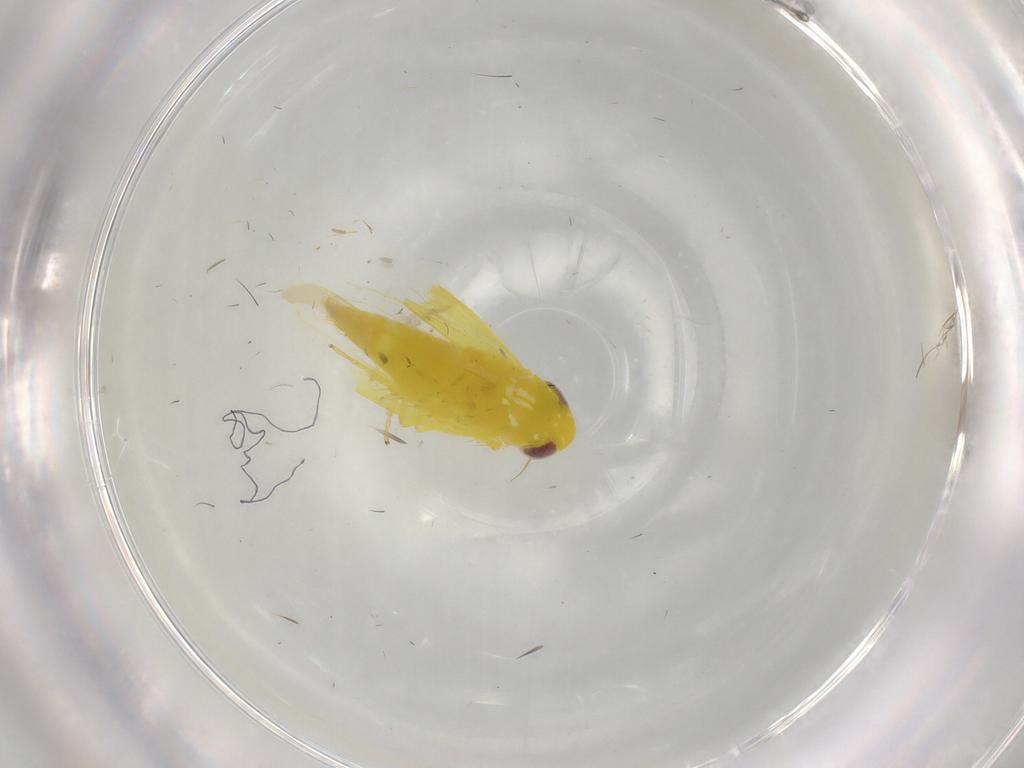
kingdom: Animalia
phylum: Arthropoda
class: Insecta
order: Hemiptera
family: Cicadellidae
